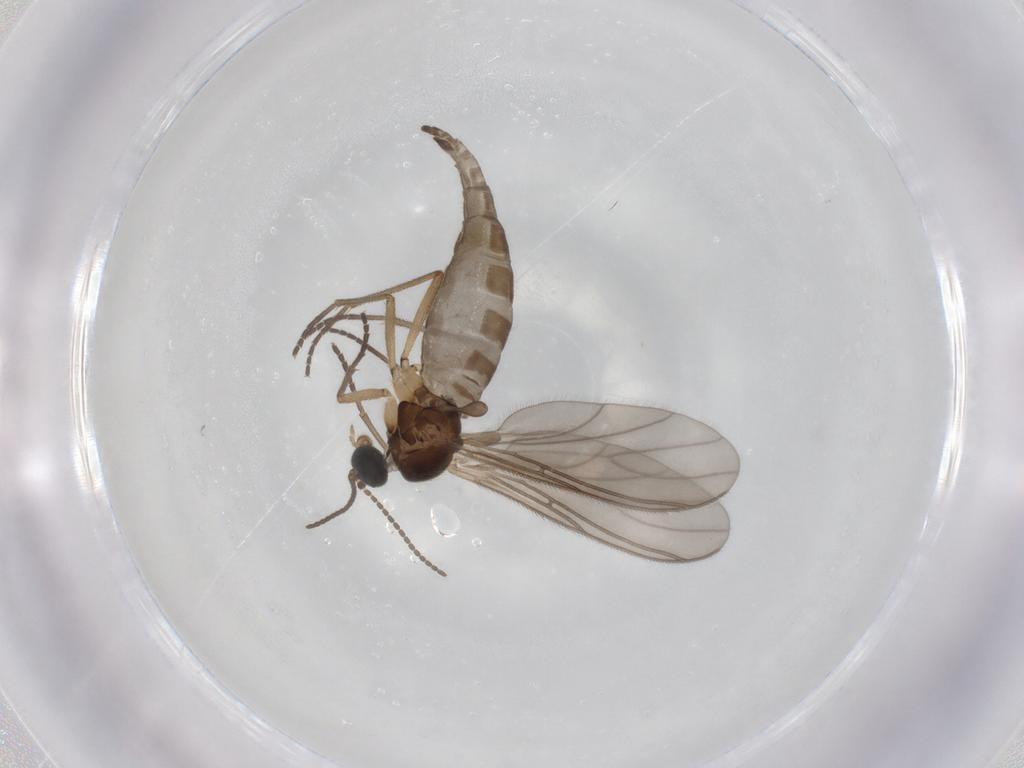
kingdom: Animalia
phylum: Arthropoda
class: Insecta
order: Diptera
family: Sciaridae
